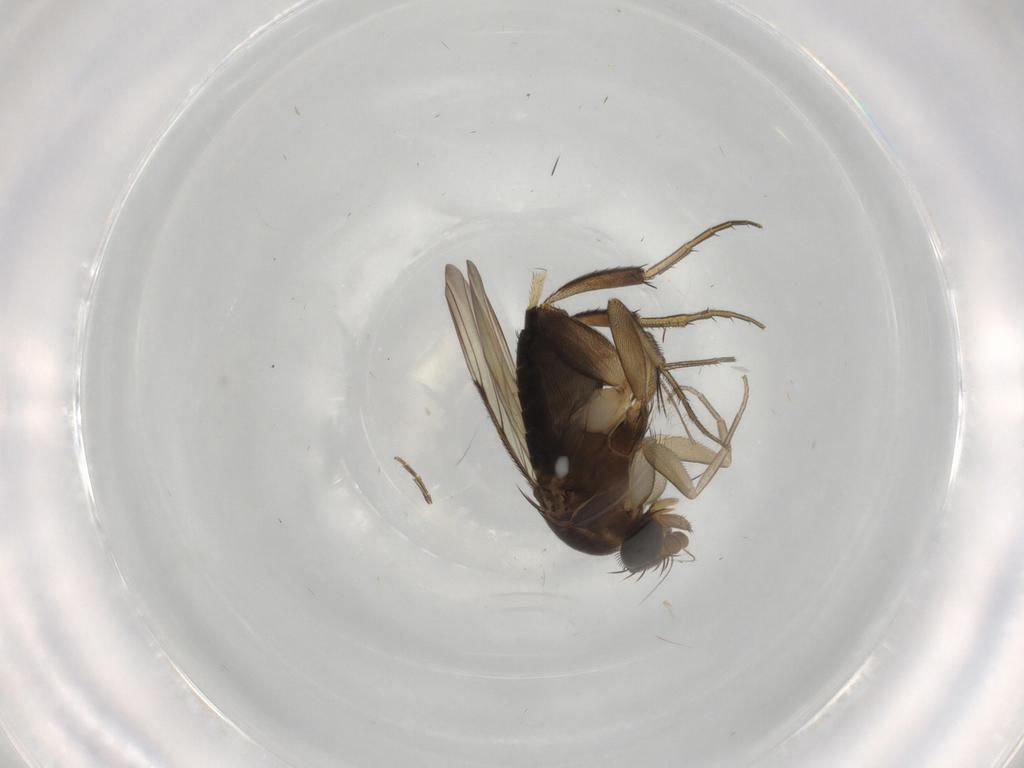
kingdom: Animalia
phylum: Arthropoda
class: Insecta
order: Diptera
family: Phoridae
